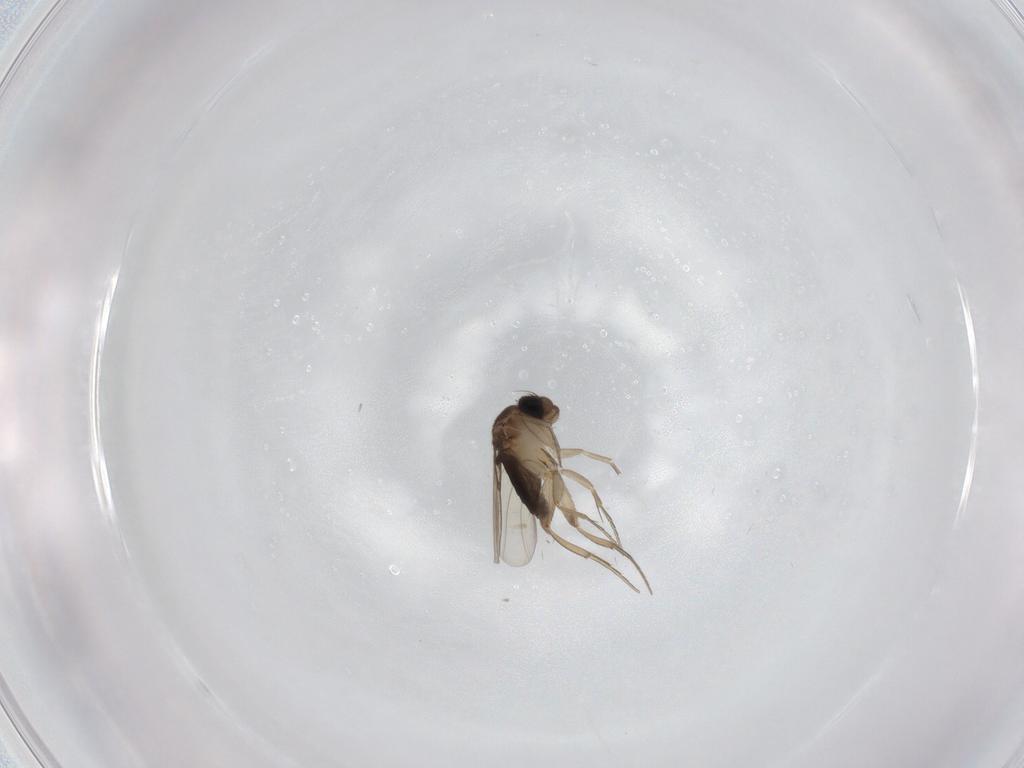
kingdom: Animalia
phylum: Arthropoda
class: Insecta
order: Diptera
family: Phoridae
